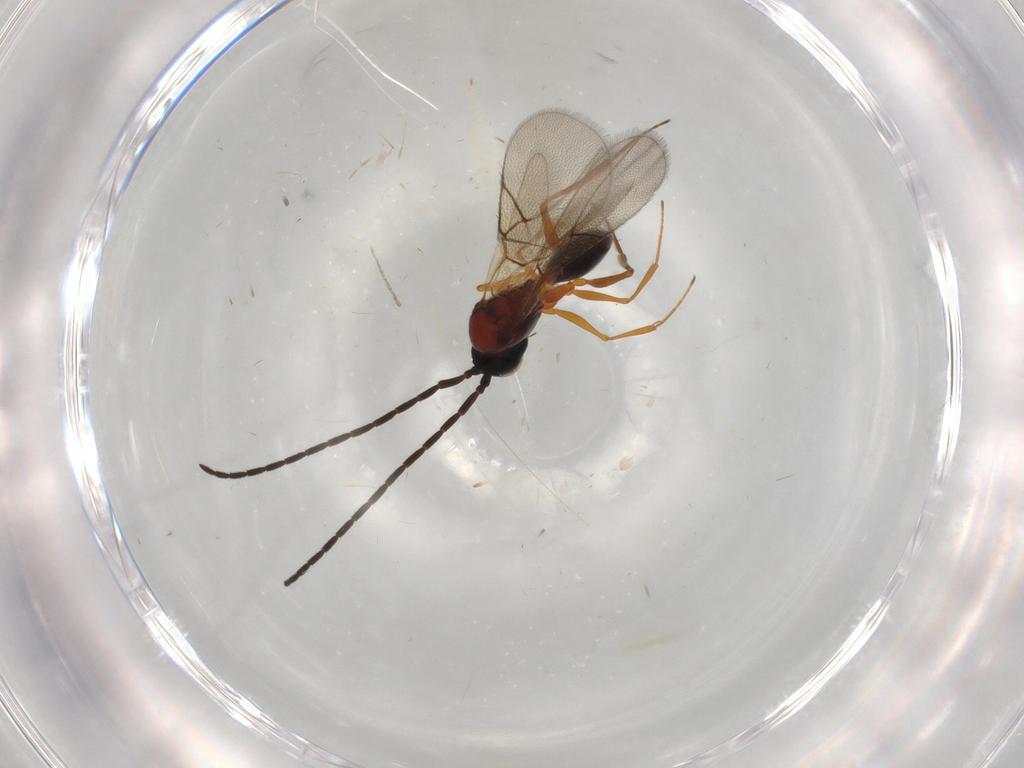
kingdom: Animalia
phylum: Arthropoda
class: Insecta
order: Hymenoptera
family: Figitidae
